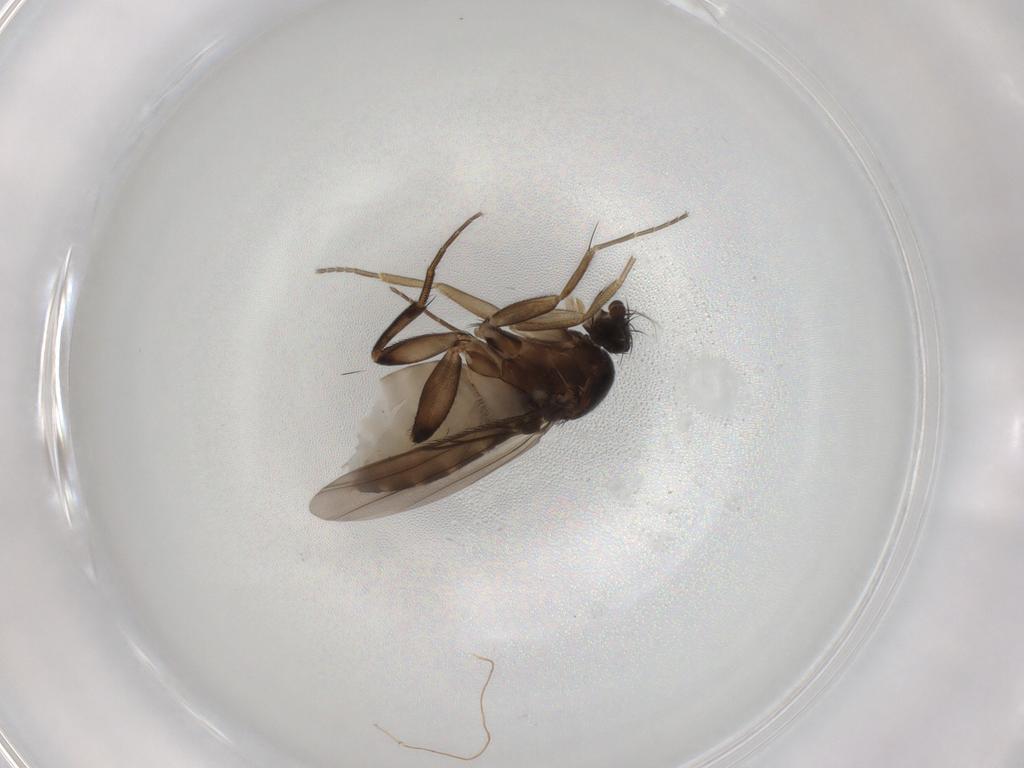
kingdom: Animalia
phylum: Arthropoda
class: Insecta
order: Diptera
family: Phoridae
